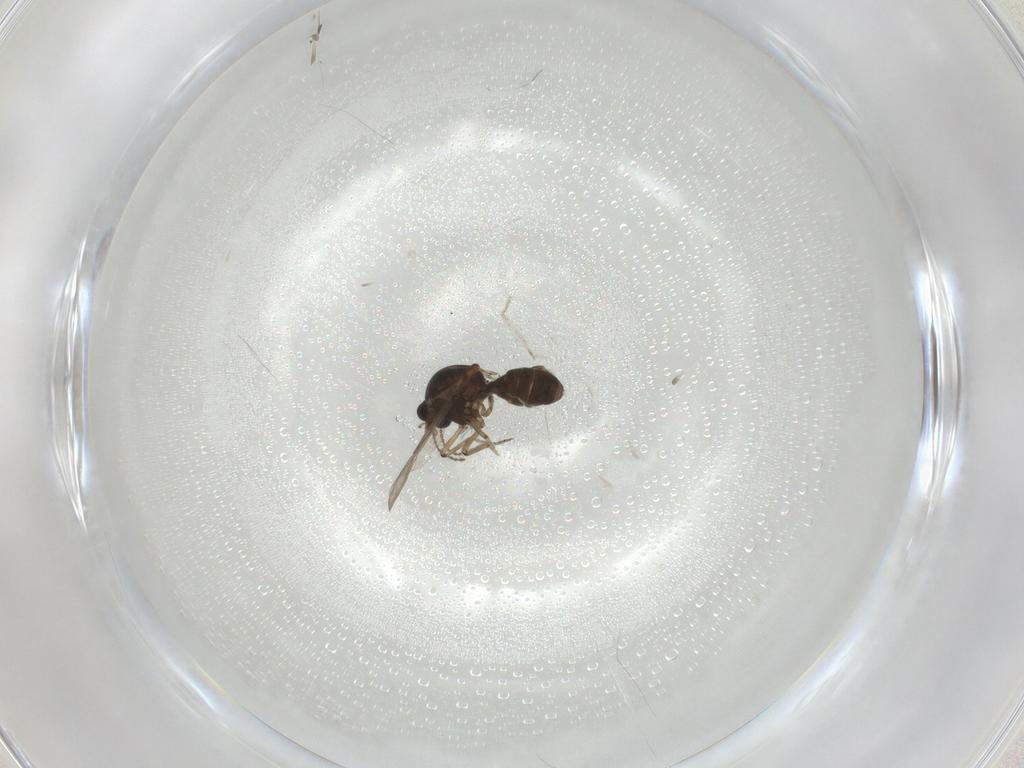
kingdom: Animalia
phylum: Arthropoda
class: Insecta
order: Diptera
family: Ceratopogonidae
